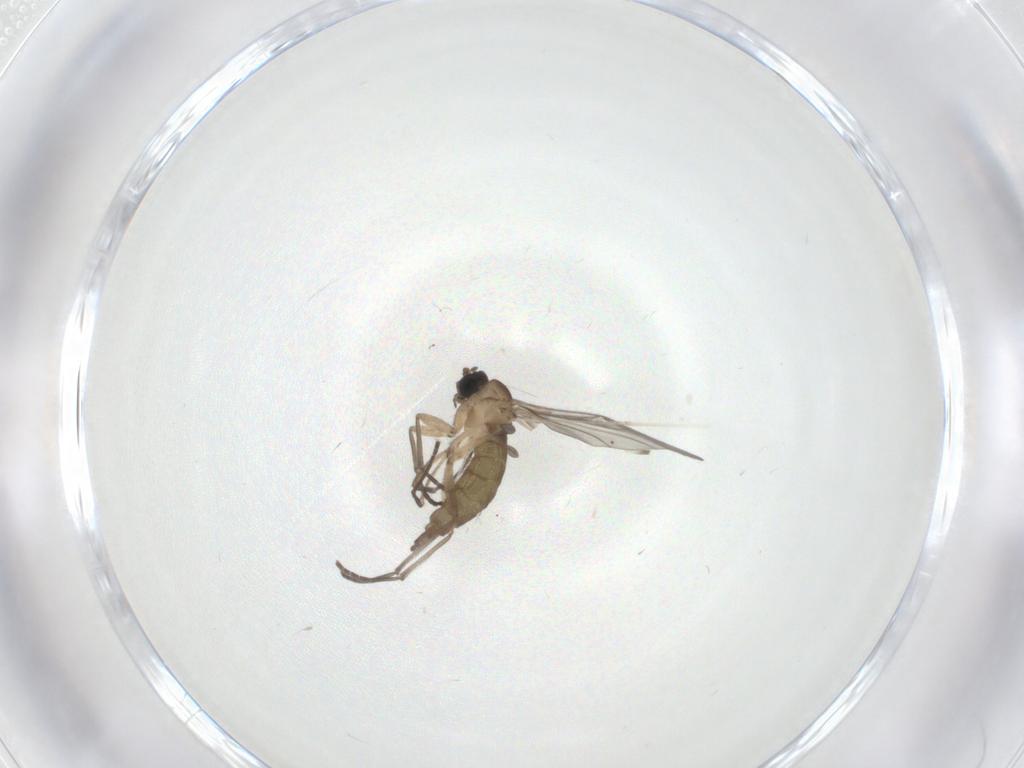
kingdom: Animalia
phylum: Arthropoda
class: Insecta
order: Diptera
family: Sciaridae
